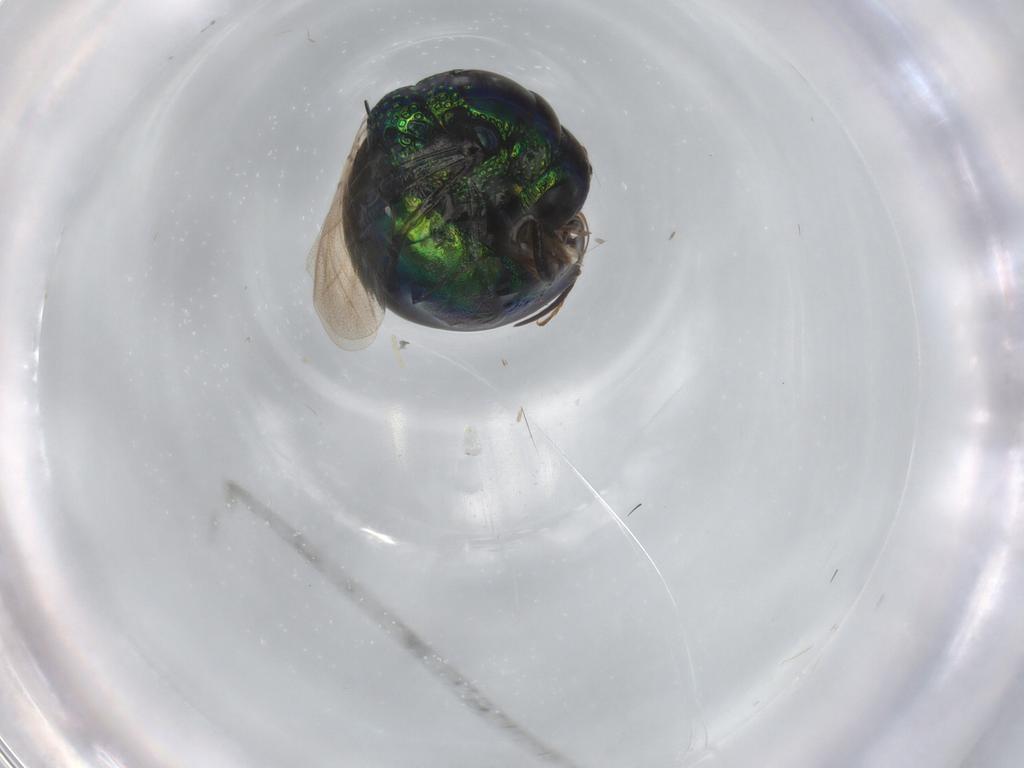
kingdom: Animalia
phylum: Arthropoda
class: Insecta
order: Hymenoptera
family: Chrysididae
